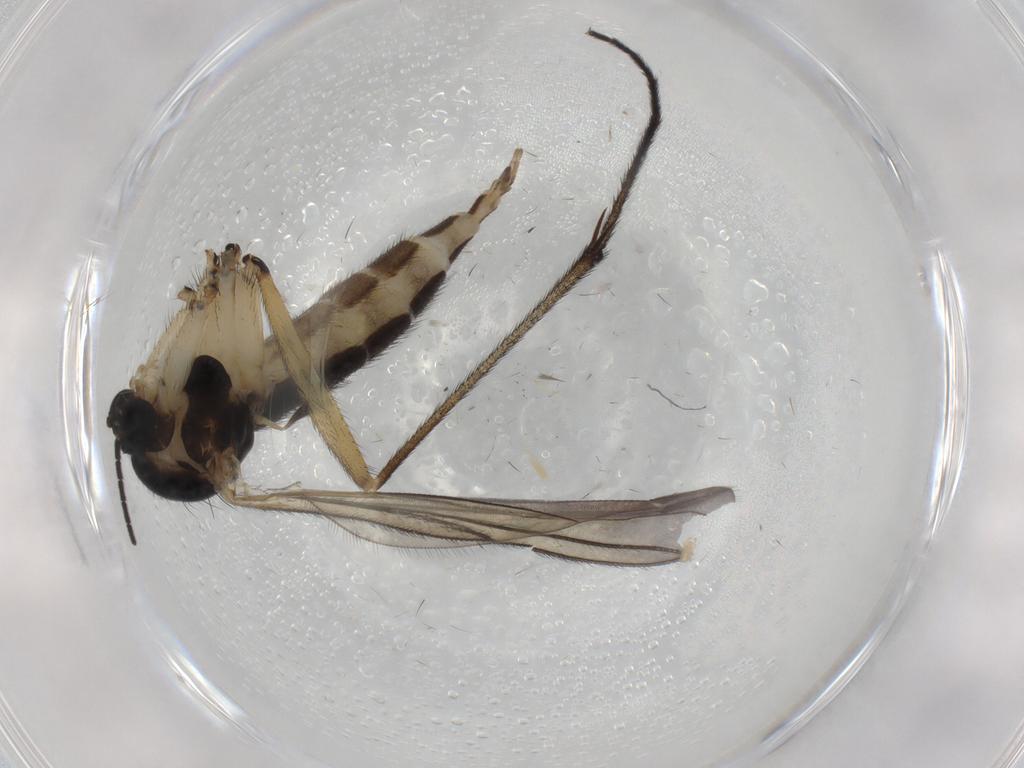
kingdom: Animalia
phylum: Arthropoda
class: Insecta
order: Diptera
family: Sciaridae
